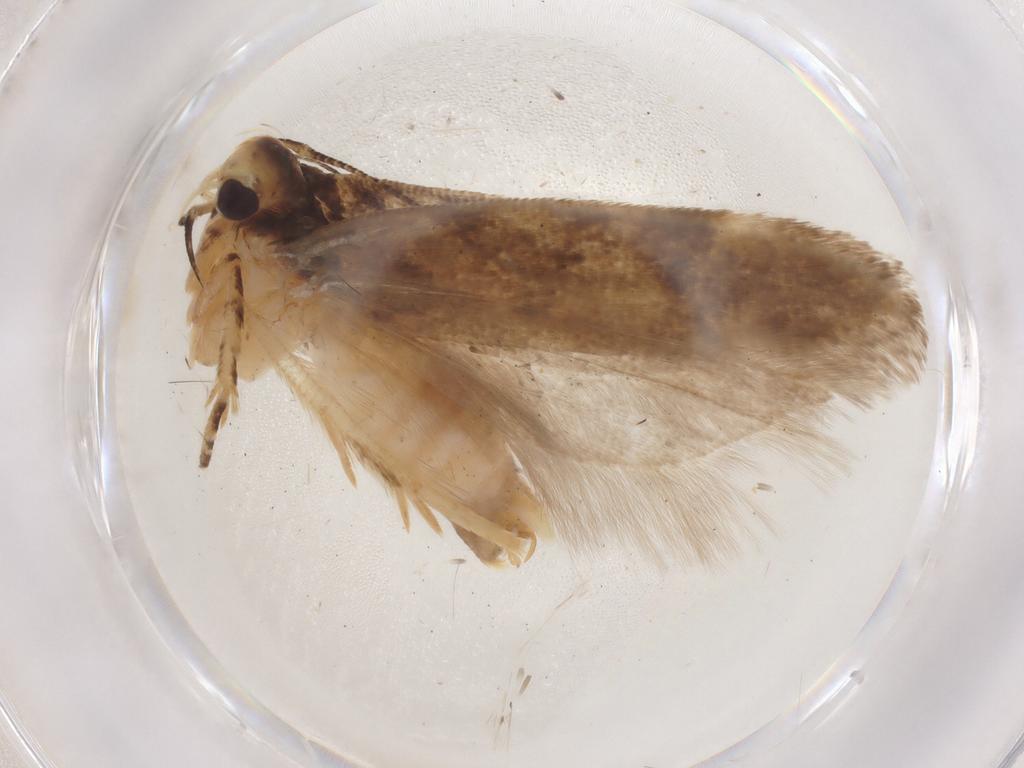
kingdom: Animalia
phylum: Arthropoda
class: Insecta
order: Lepidoptera
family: Gelechiidae
